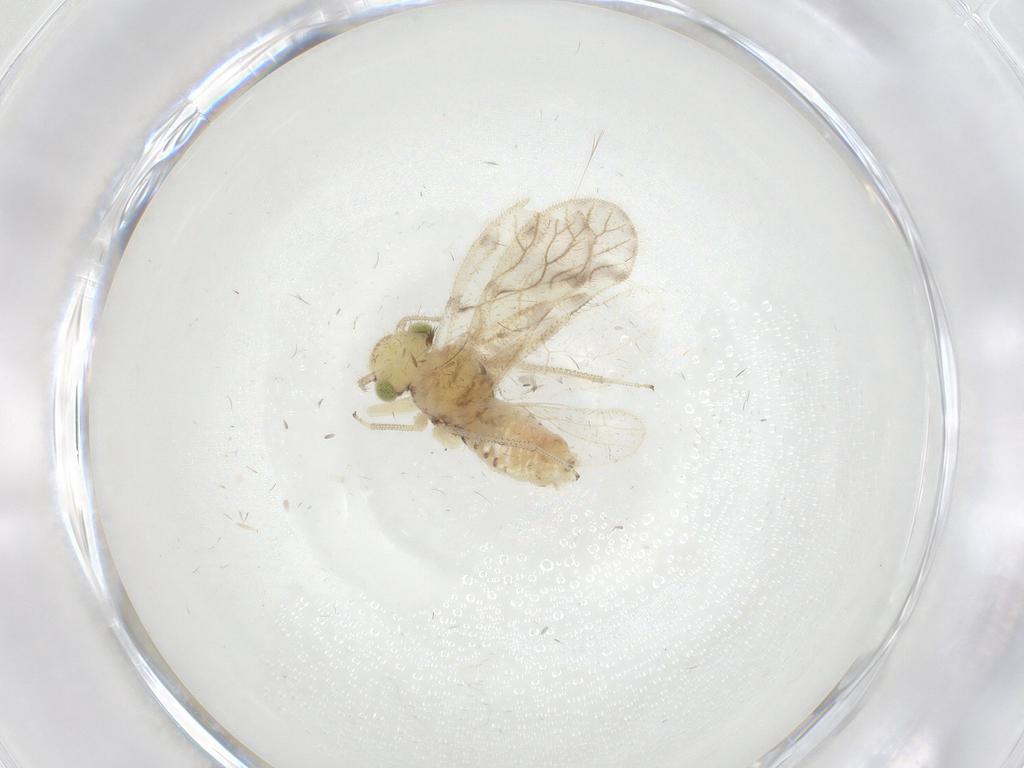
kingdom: Animalia
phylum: Arthropoda
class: Insecta
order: Psocodea
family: Pseudocaeciliidae
